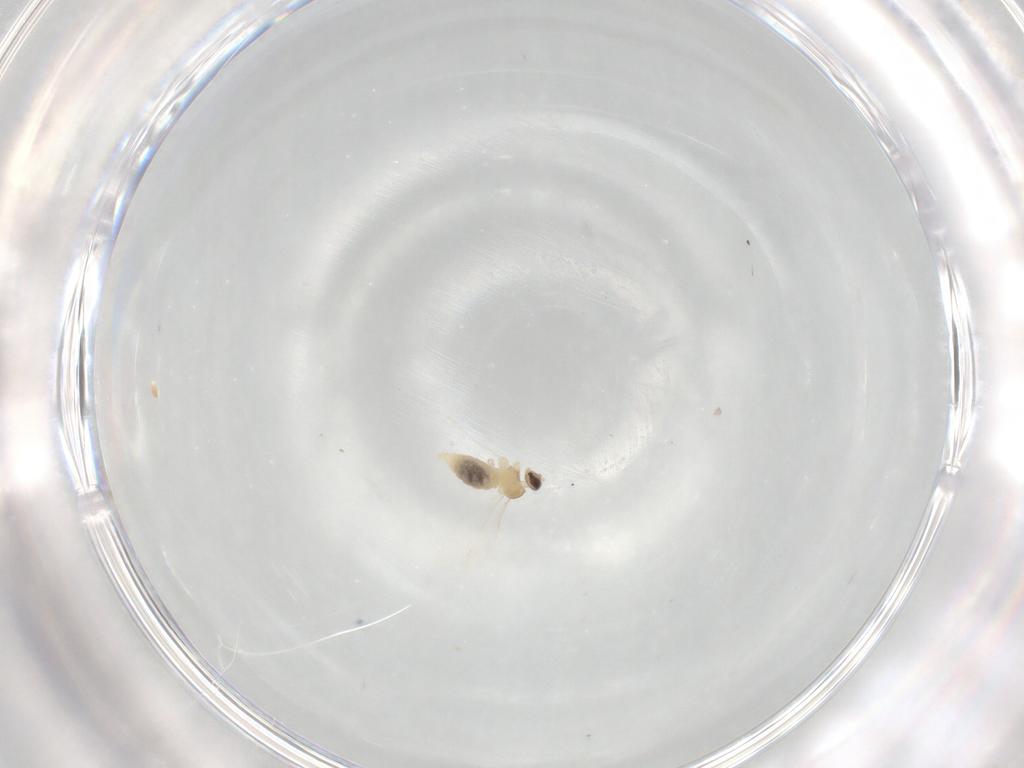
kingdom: Animalia
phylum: Arthropoda
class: Insecta
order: Diptera
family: Cecidomyiidae
